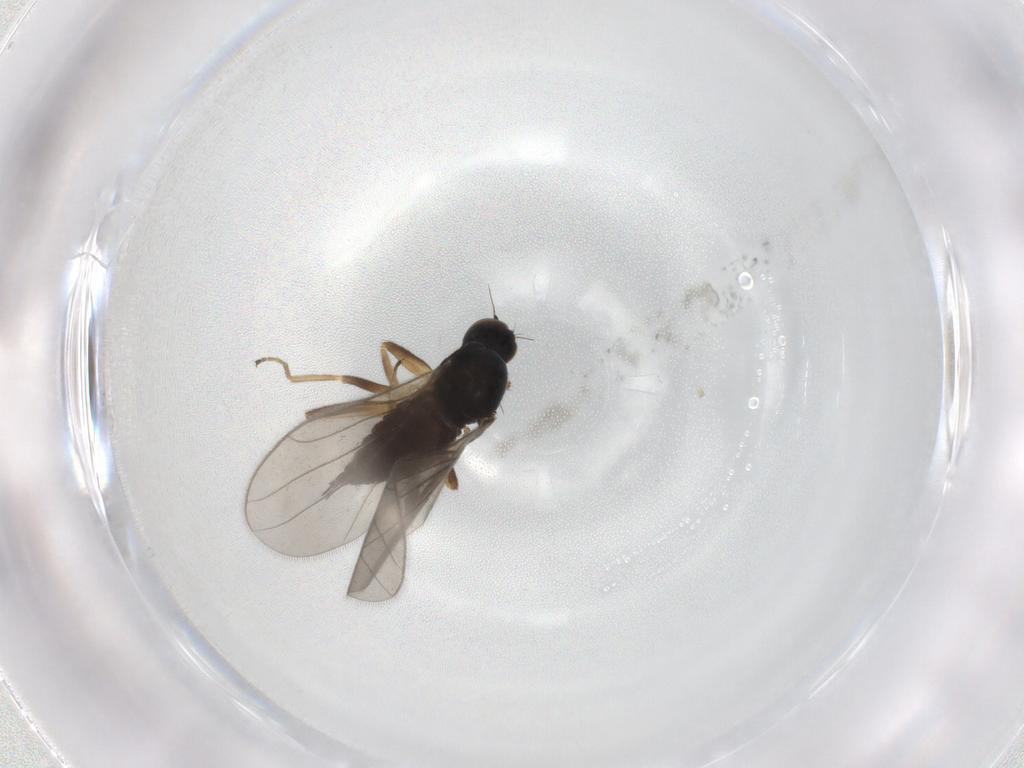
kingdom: Animalia
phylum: Arthropoda
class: Insecta
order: Diptera
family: Hybotidae
